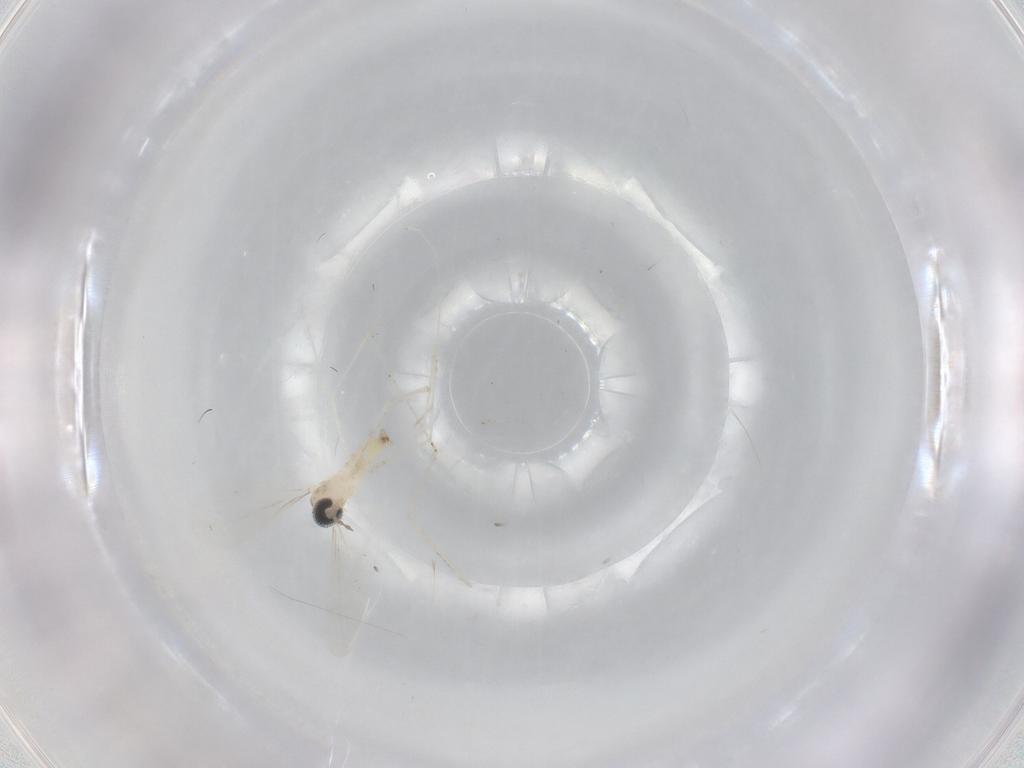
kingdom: Animalia
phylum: Arthropoda
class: Insecta
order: Diptera
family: Cecidomyiidae
